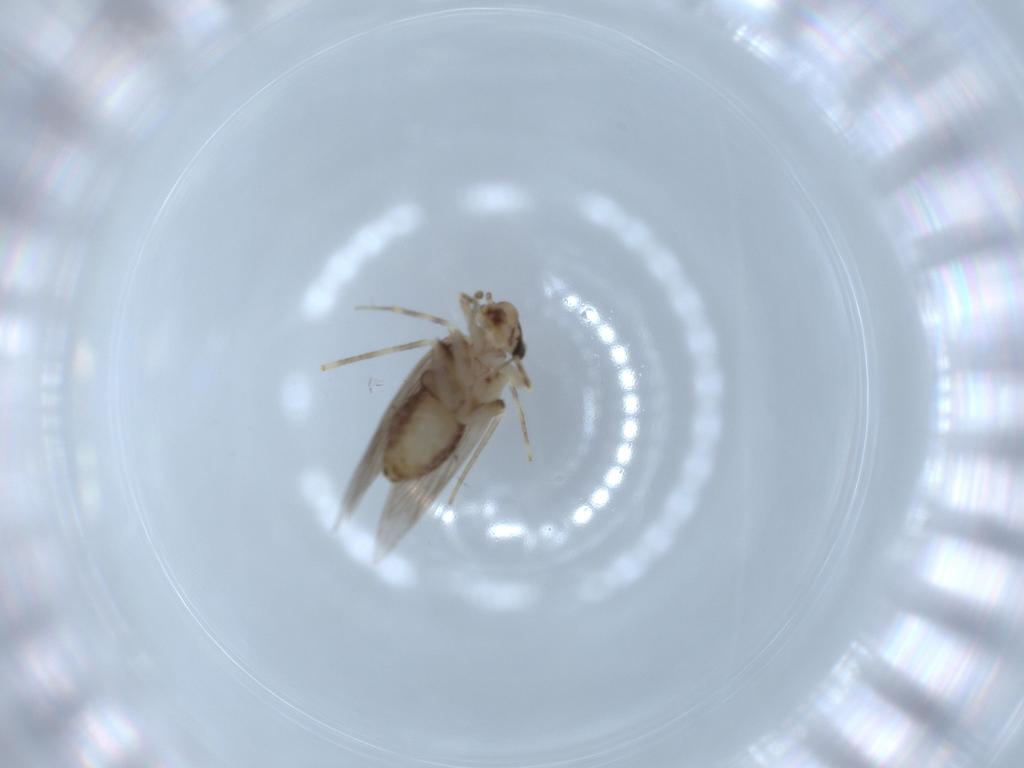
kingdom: Animalia
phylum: Arthropoda
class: Insecta
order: Psocodea
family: Lepidopsocidae
